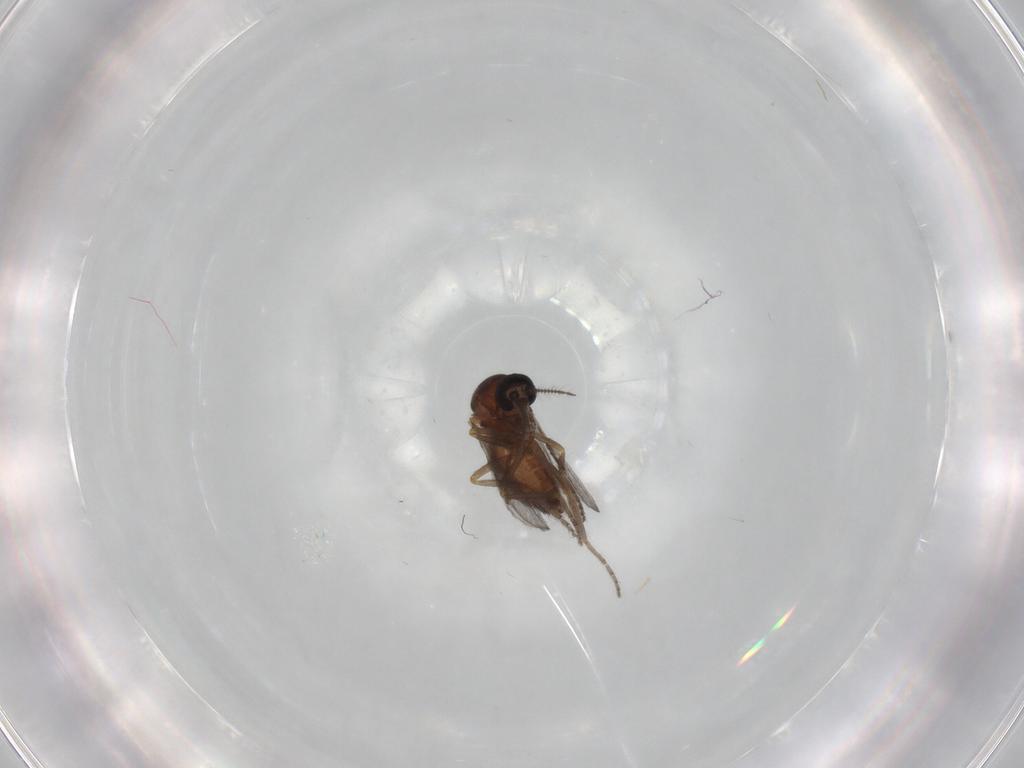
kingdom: Animalia
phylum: Arthropoda
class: Insecta
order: Diptera
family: Ceratopogonidae
